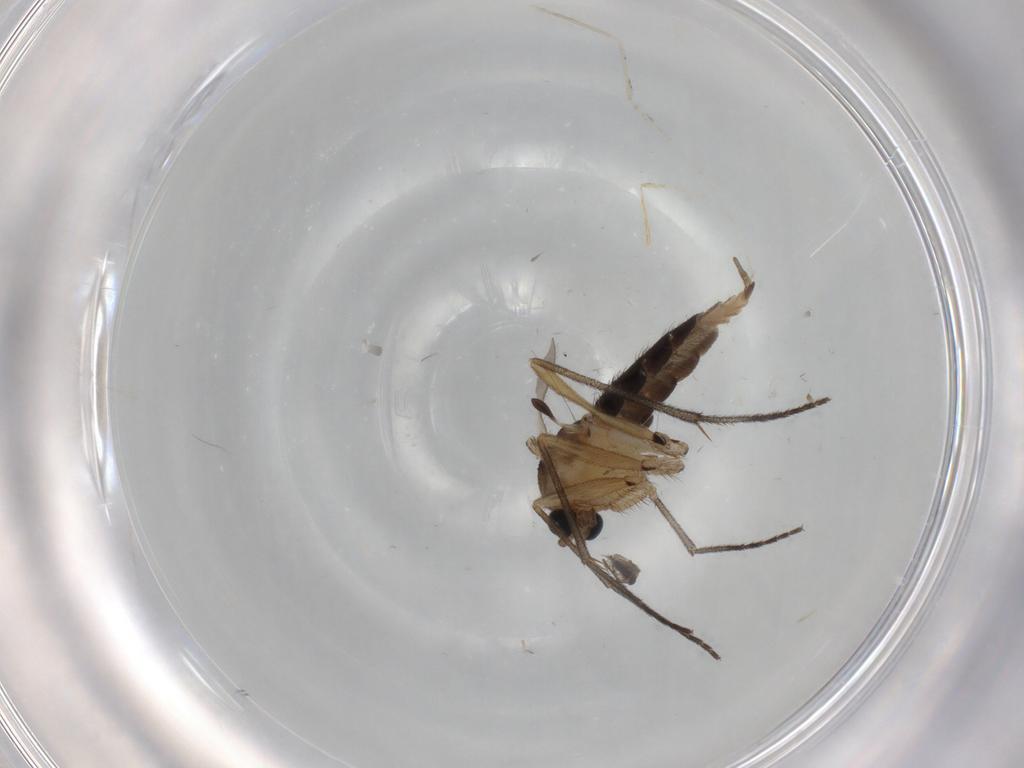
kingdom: Animalia
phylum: Arthropoda
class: Insecta
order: Diptera
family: Sciaridae
